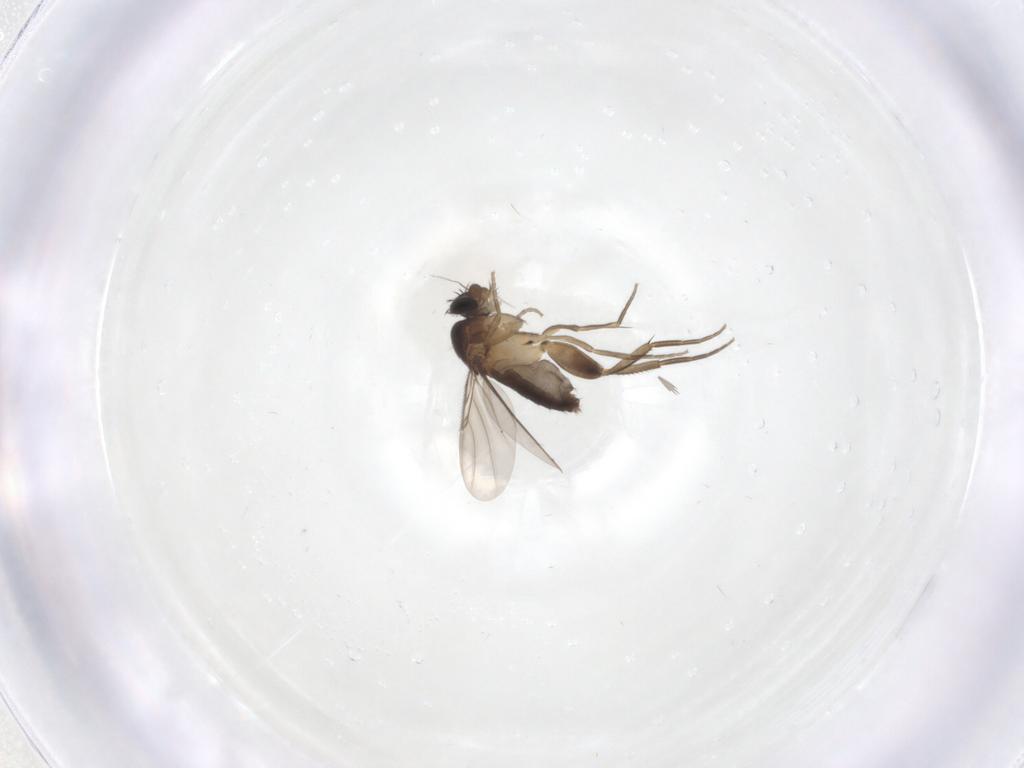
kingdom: Animalia
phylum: Arthropoda
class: Insecta
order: Diptera
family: Phoridae
